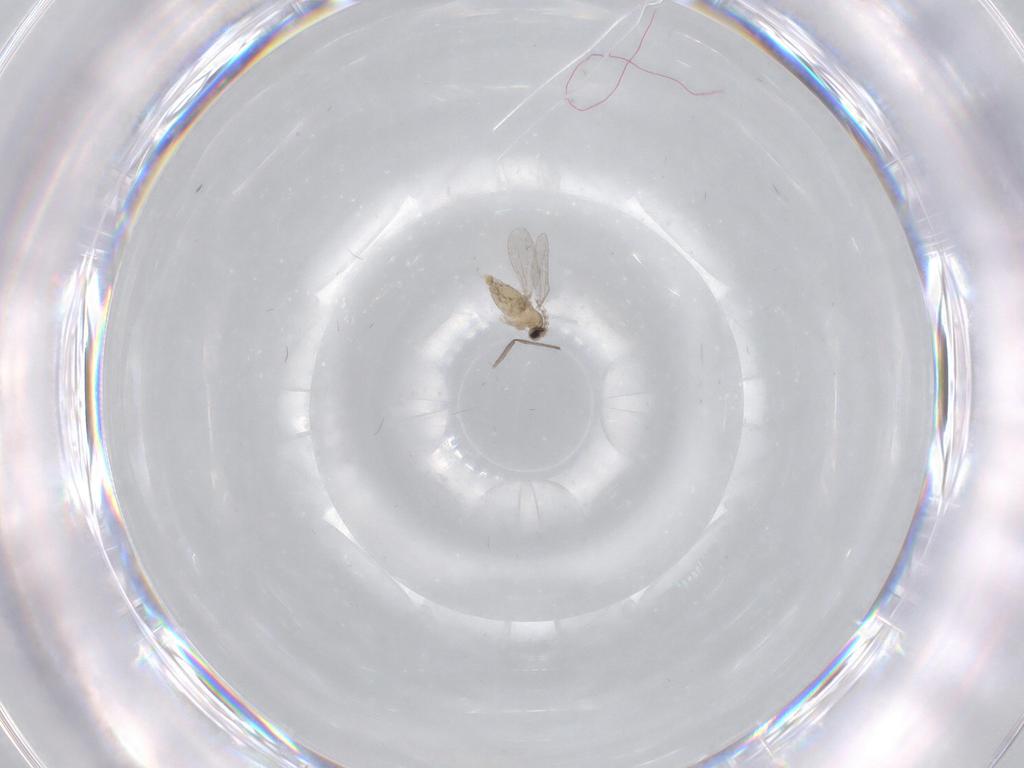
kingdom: Animalia
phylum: Arthropoda
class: Insecta
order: Diptera
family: Cecidomyiidae
